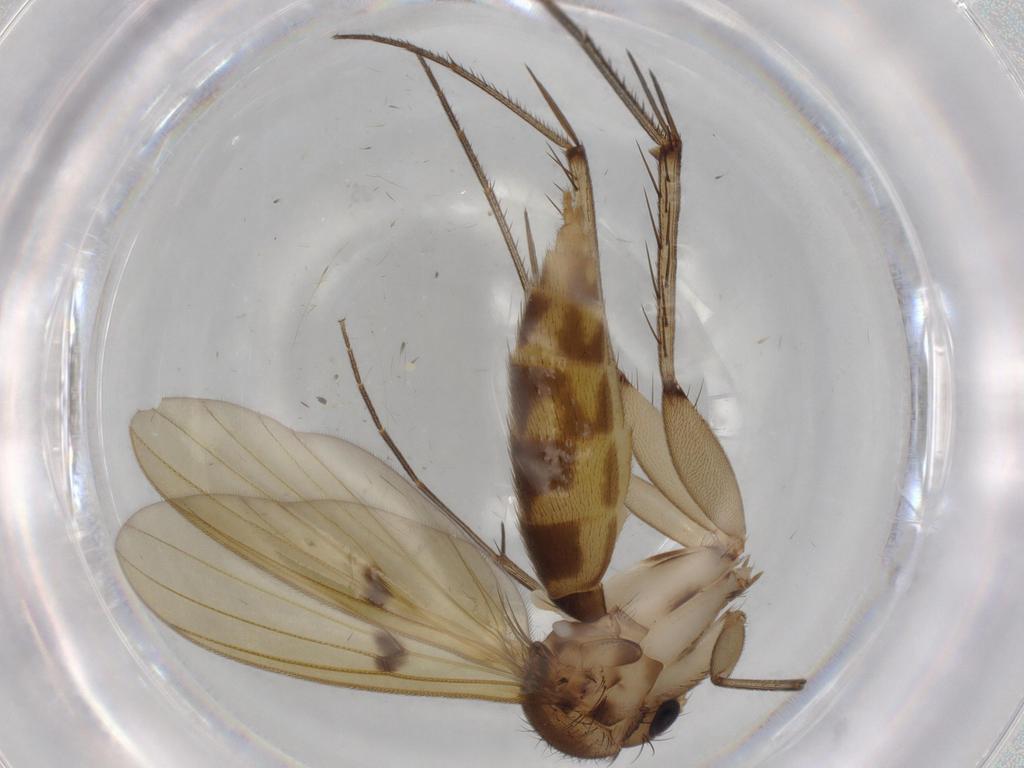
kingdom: Animalia
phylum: Arthropoda
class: Insecta
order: Diptera
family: Mycetophilidae
